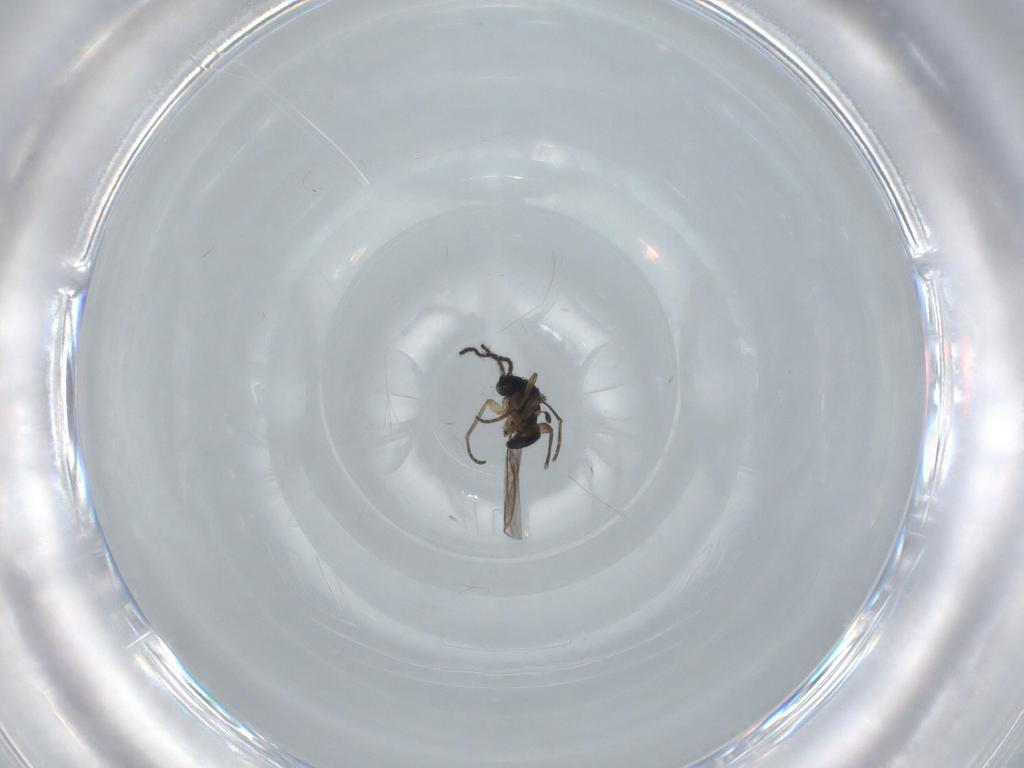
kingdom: Animalia
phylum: Arthropoda
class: Insecta
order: Diptera
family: Sciaridae
